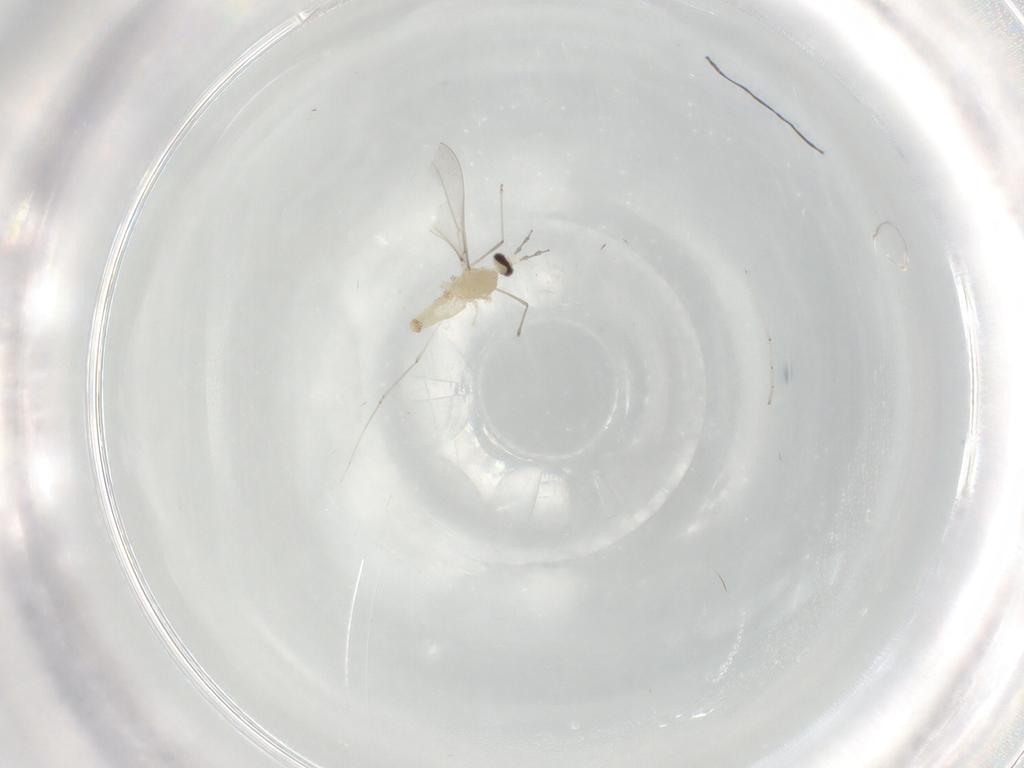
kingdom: Animalia
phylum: Arthropoda
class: Insecta
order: Diptera
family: Cecidomyiidae
